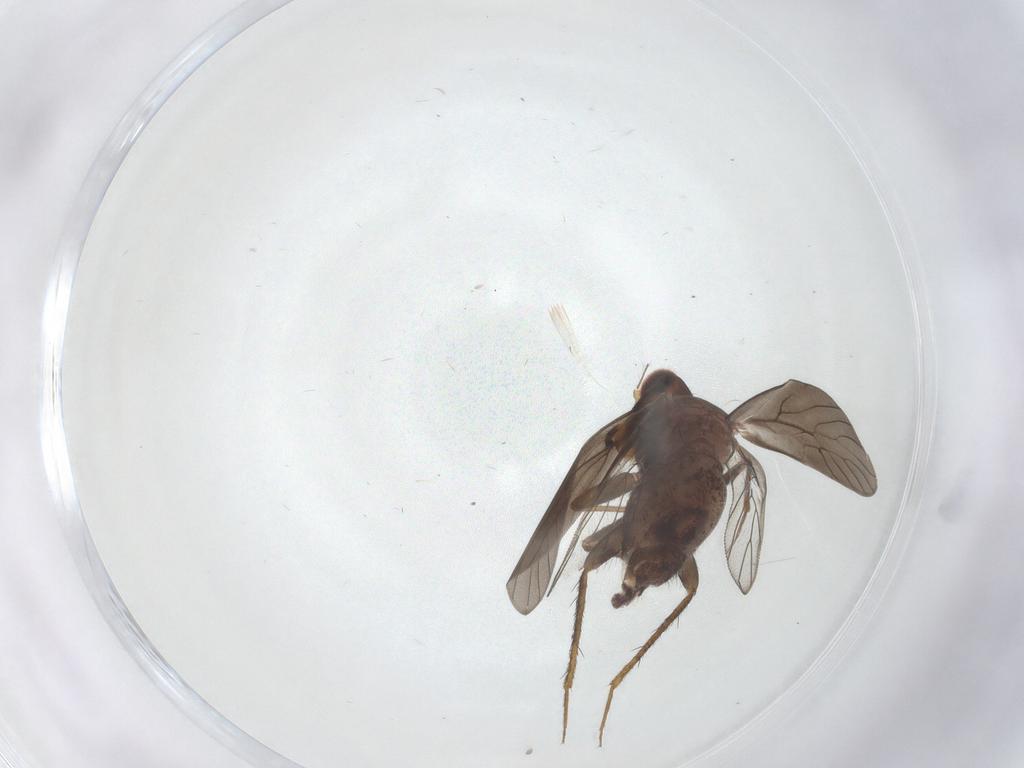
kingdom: Animalia
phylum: Arthropoda
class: Insecta
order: Psocodea
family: Lepidopsocidae
